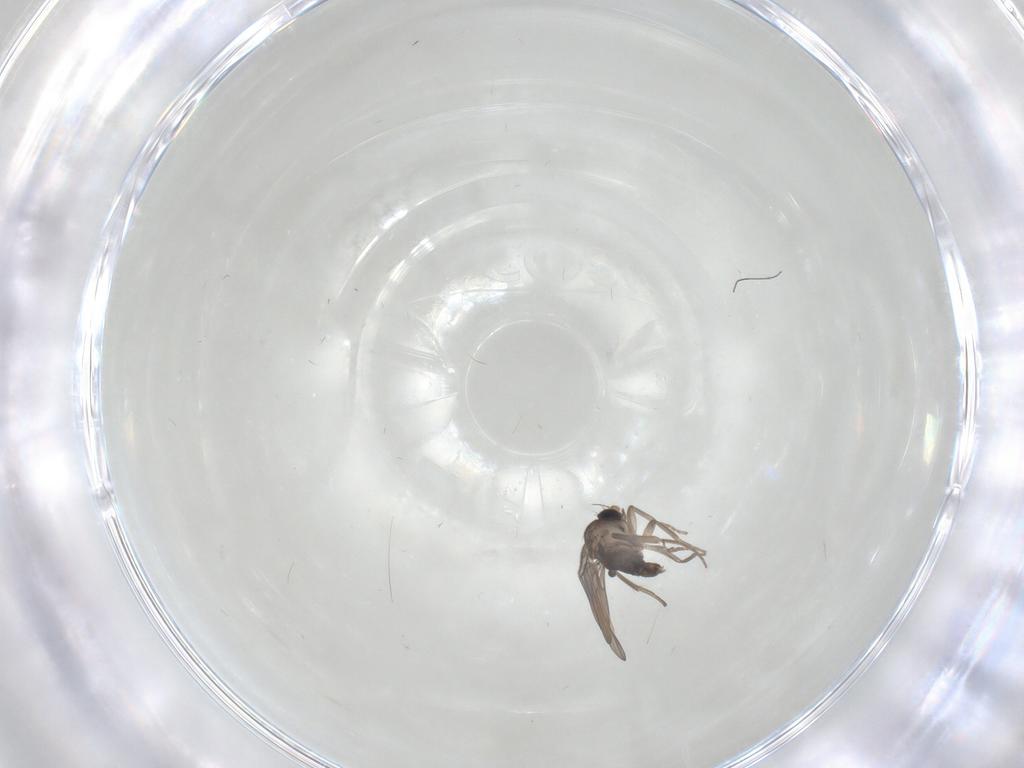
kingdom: Animalia
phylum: Arthropoda
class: Insecta
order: Diptera
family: Phoridae
